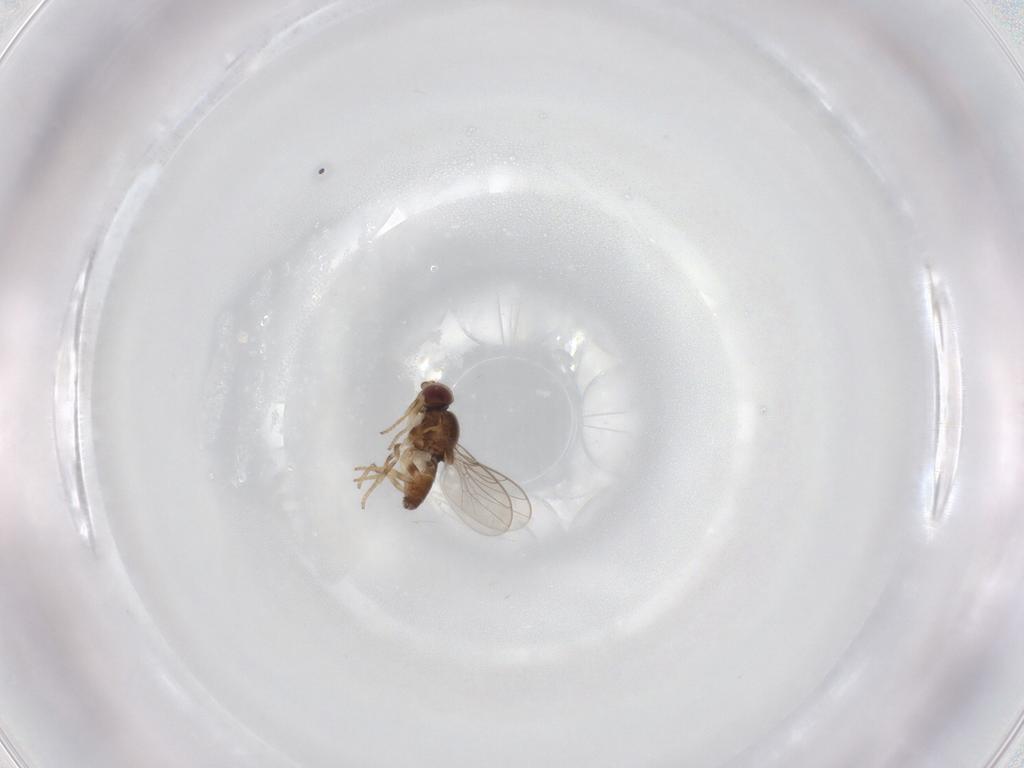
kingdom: Animalia
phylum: Arthropoda
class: Insecta
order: Diptera
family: Chloropidae
